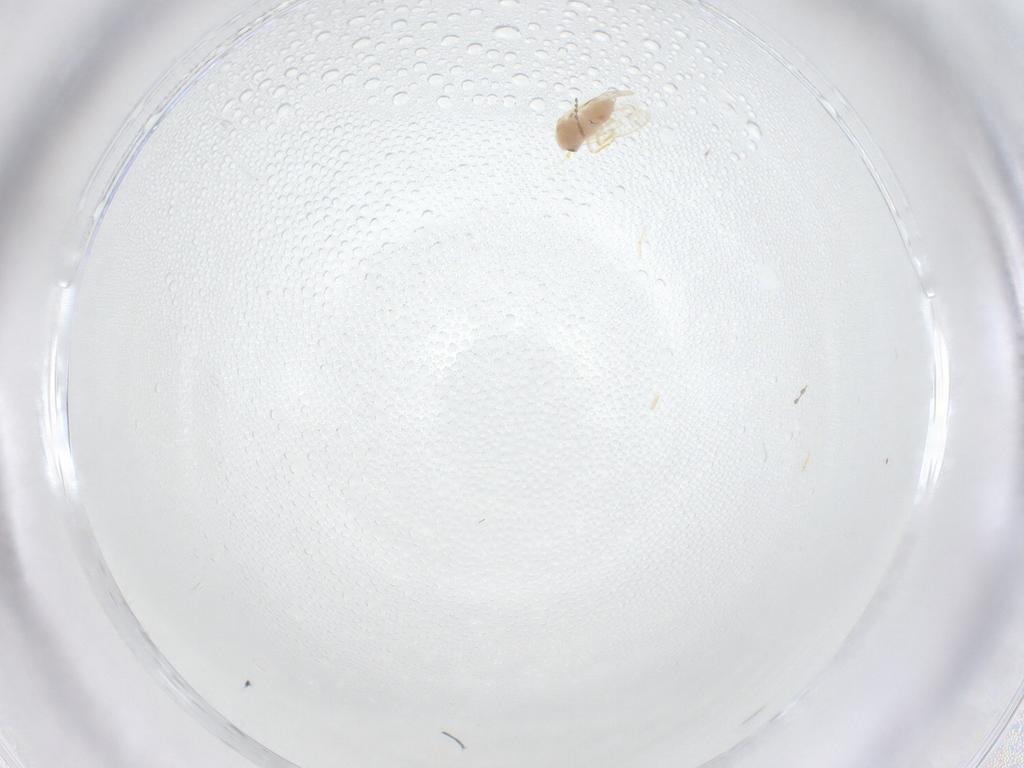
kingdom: Animalia
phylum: Arthropoda
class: Insecta
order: Hemiptera
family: Aleyrodidae
